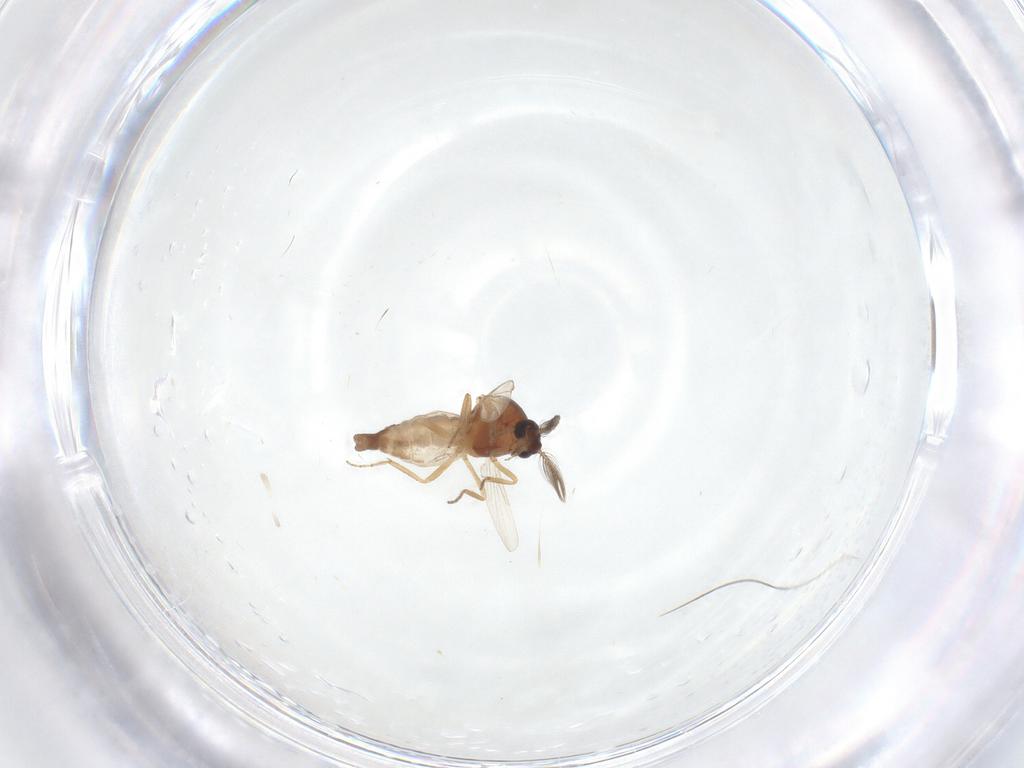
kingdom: Animalia
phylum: Arthropoda
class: Insecta
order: Diptera
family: Ceratopogonidae
